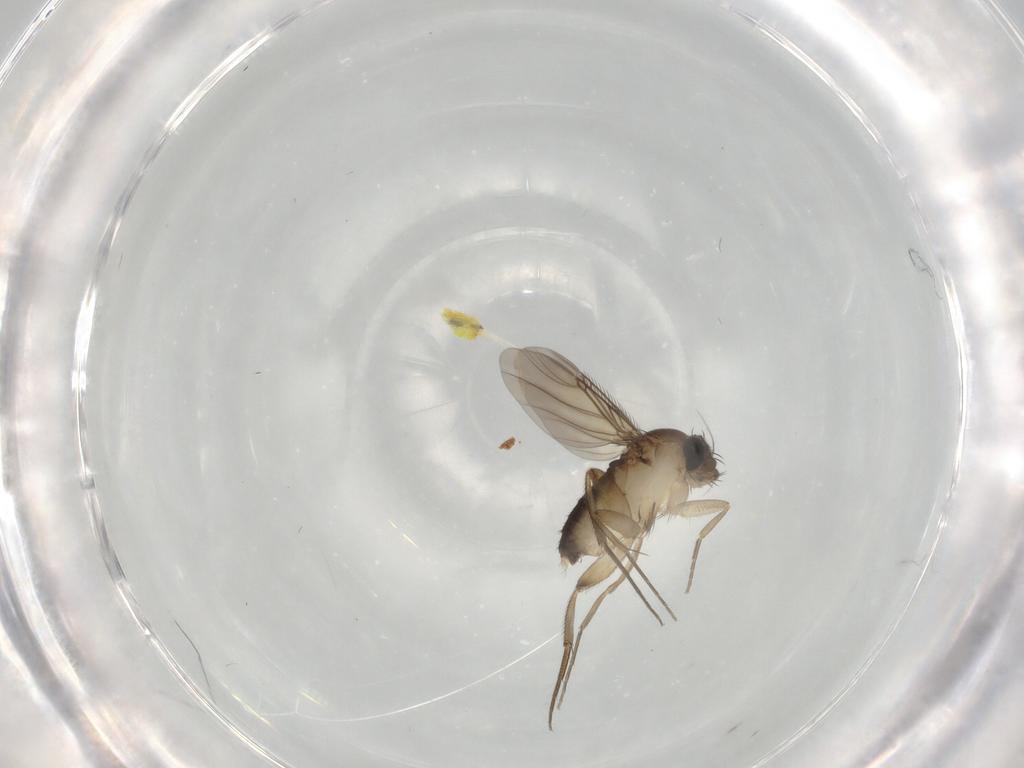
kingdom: Animalia
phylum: Arthropoda
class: Insecta
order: Diptera
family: Phoridae
